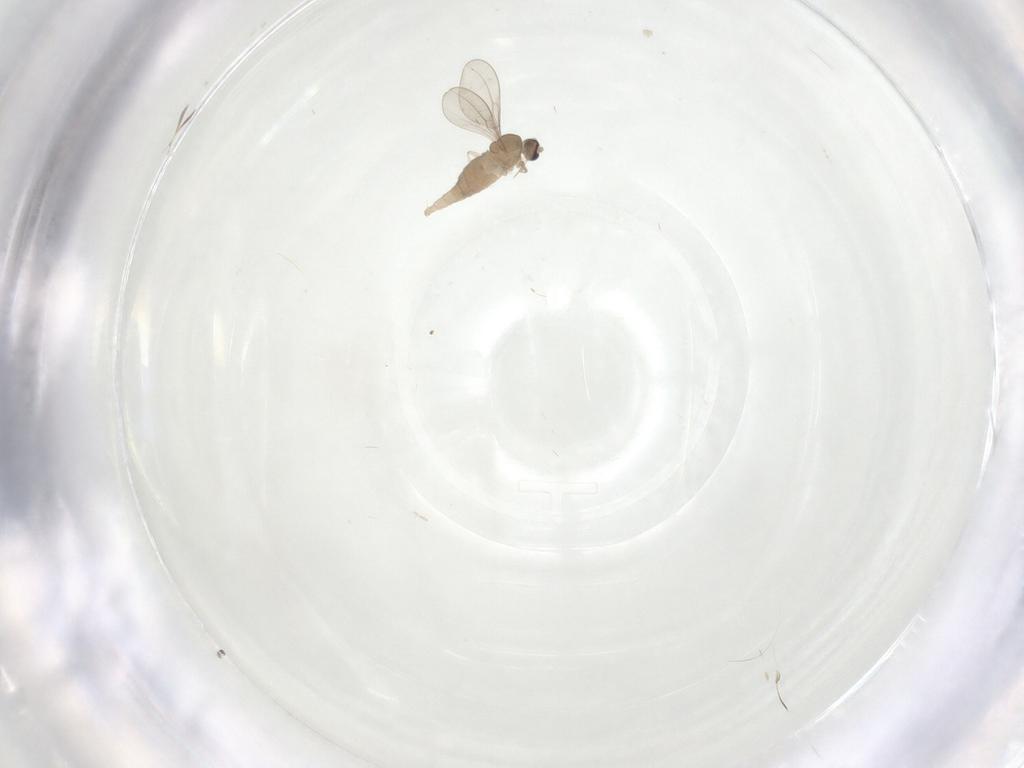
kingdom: Animalia
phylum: Arthropoda
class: Insecta
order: Diptera
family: Cecidomyiidae
